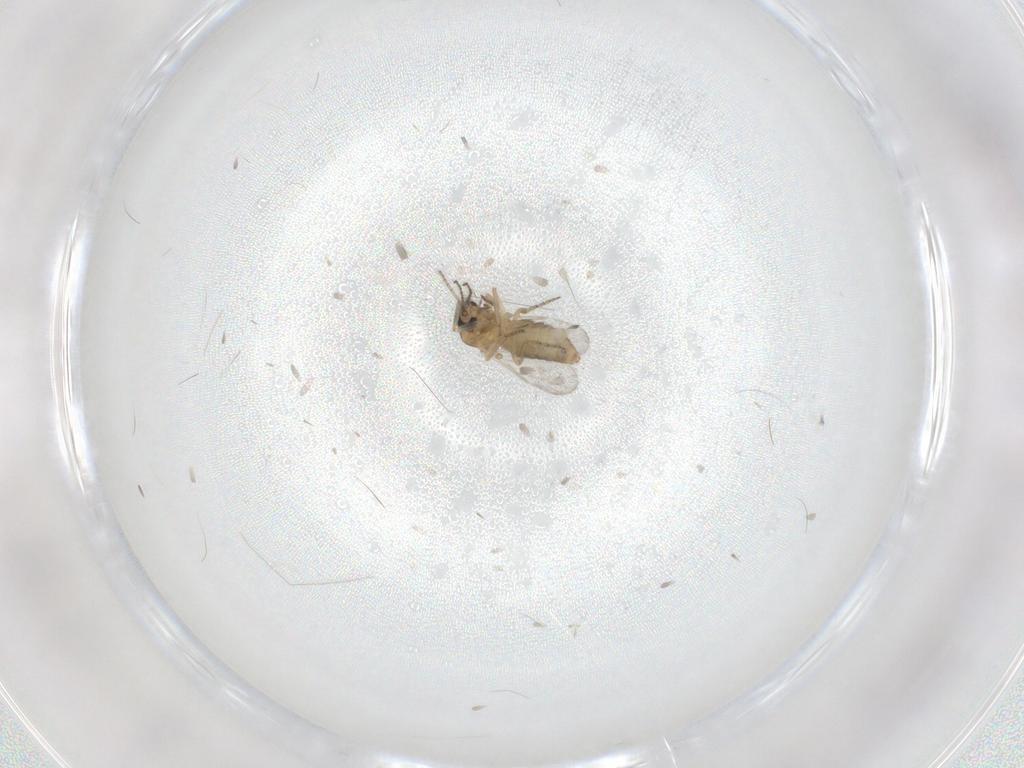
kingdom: Animalia
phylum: Arthropoda
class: Insecta
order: Diptera
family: Ceratopogonidae
